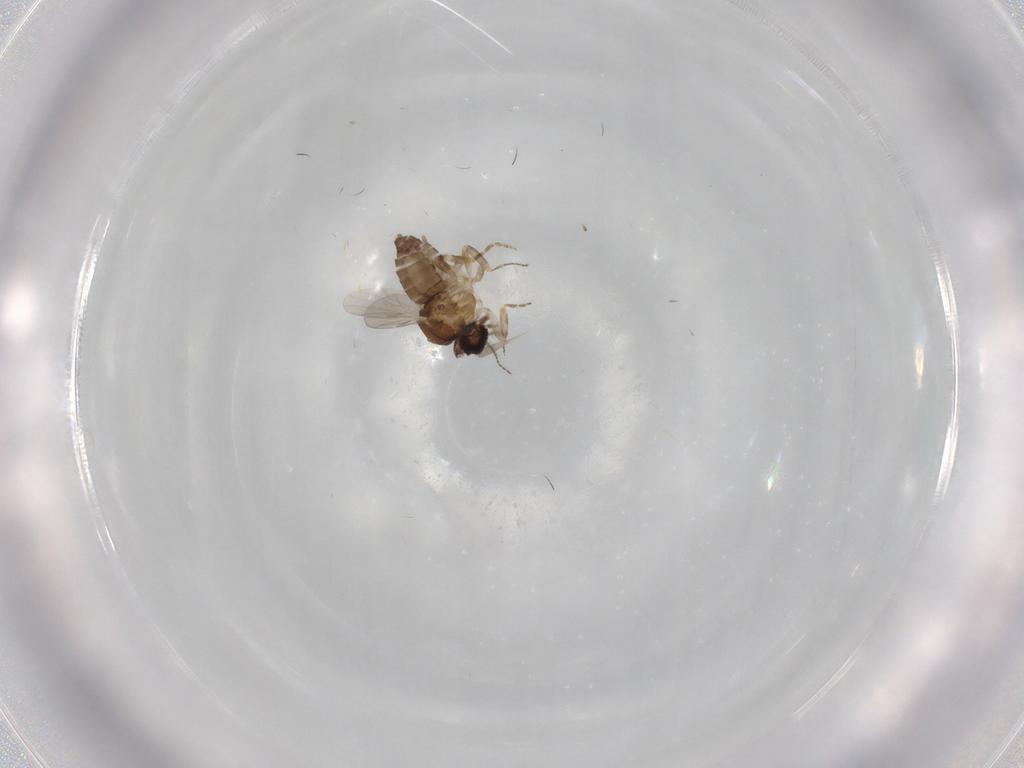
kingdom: Animalia
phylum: Arthropoda
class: Insecta
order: Diptera
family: Ceratopogonidae
